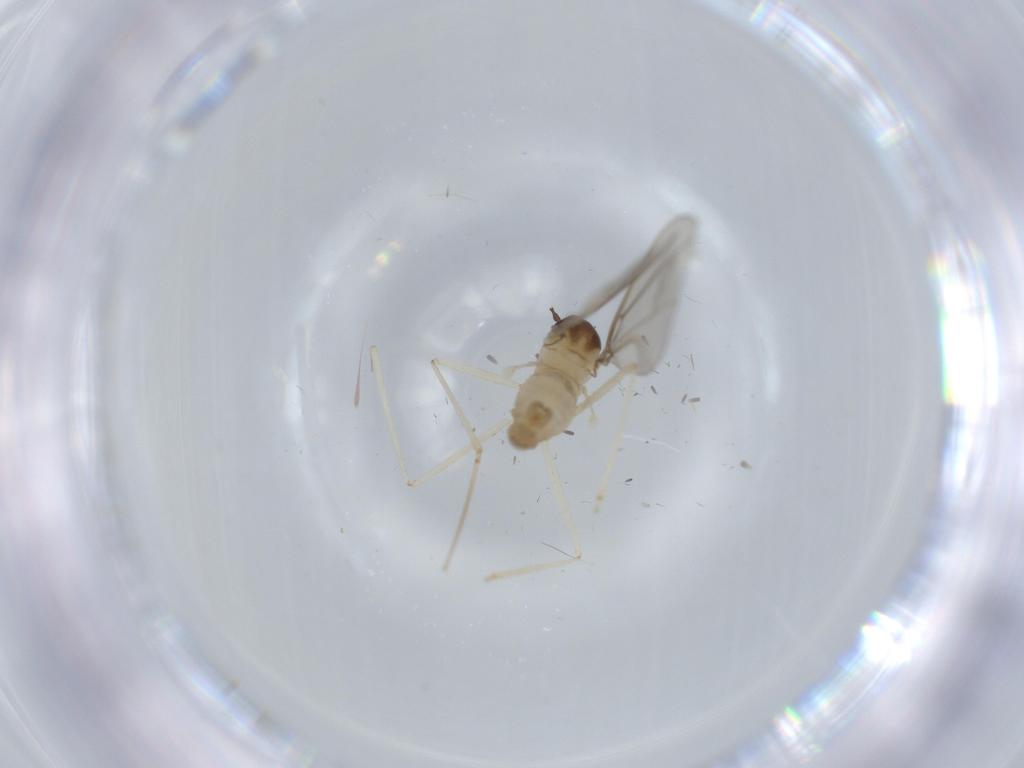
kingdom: Animalia
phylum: Arthropoda
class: Insecta
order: Diptera
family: Sciaridae
